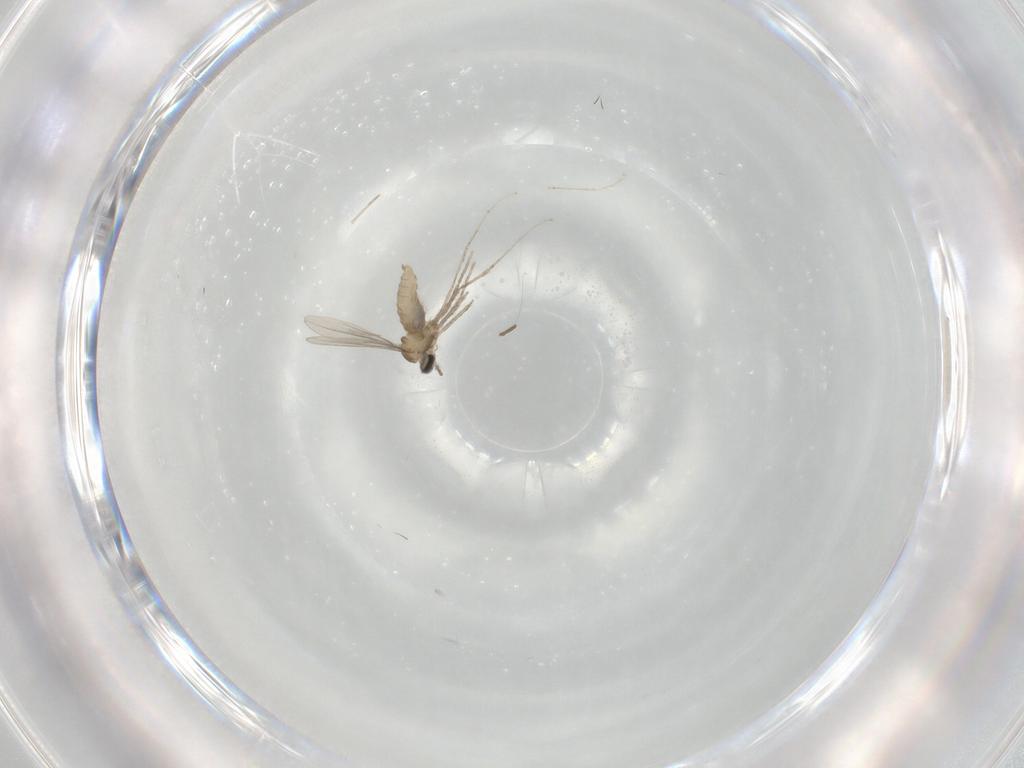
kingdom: Animalia
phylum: Arthropoda
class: Insecta
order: Diptera
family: Cecidomyiidae
